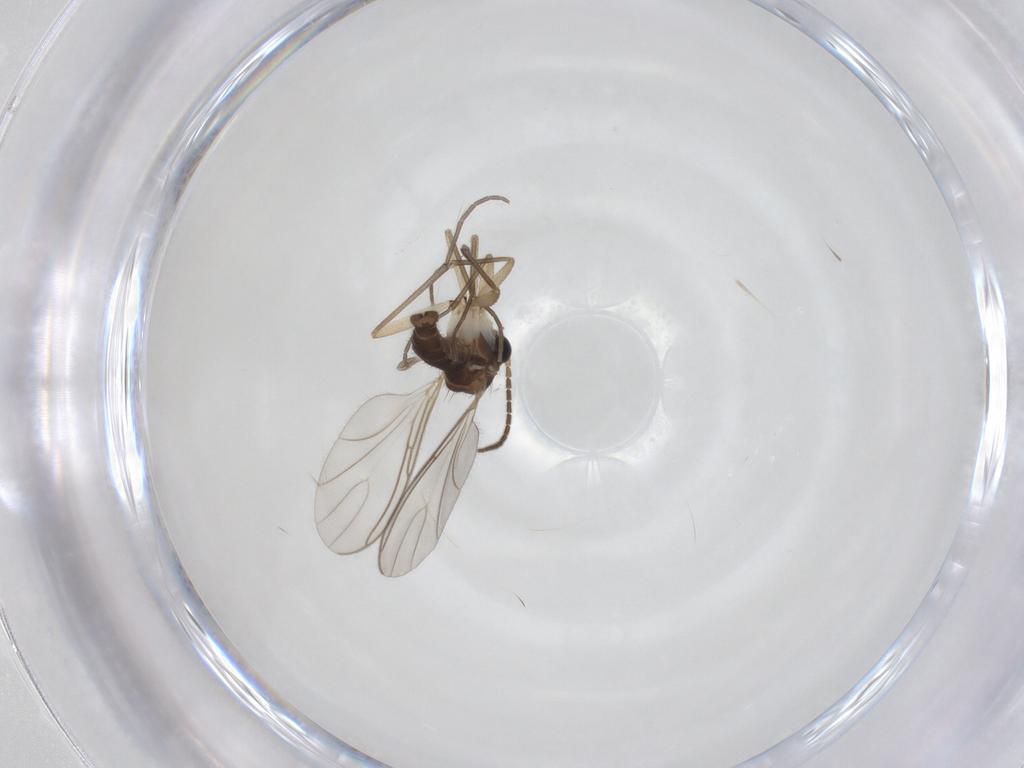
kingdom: Animalia
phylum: Arthropoda
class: Insecta
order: Diptera
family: Sciaridae
